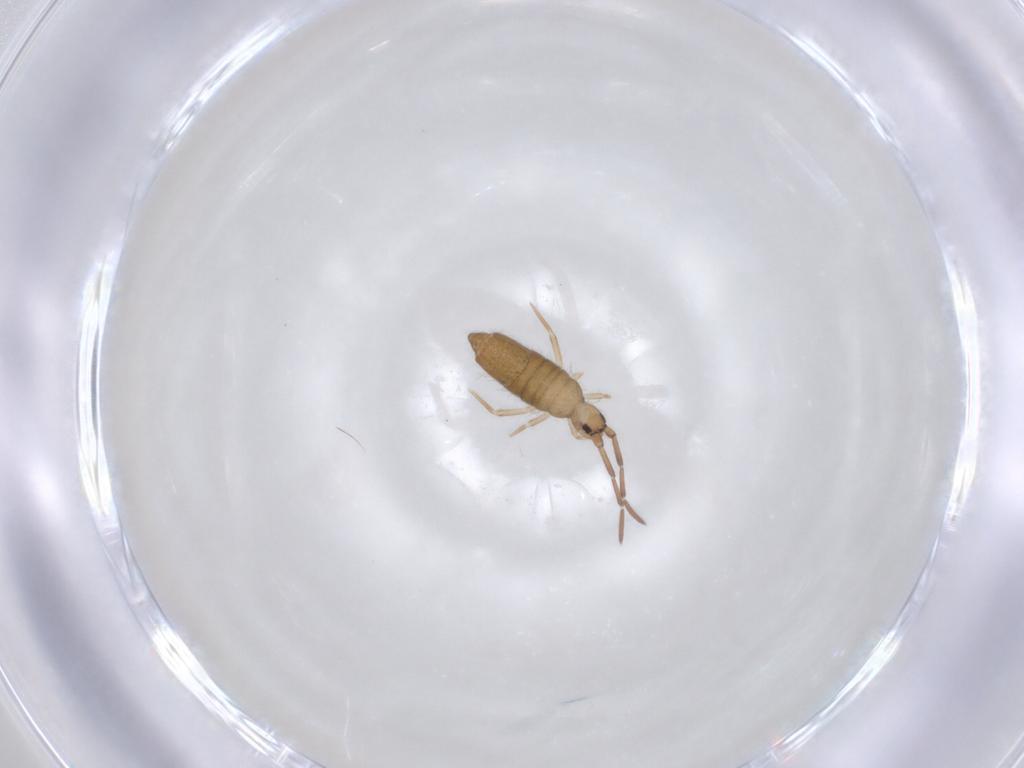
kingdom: Animalia
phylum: Arthropoda
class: Collembola
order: Entomobryomorpha
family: Entomobryidae
